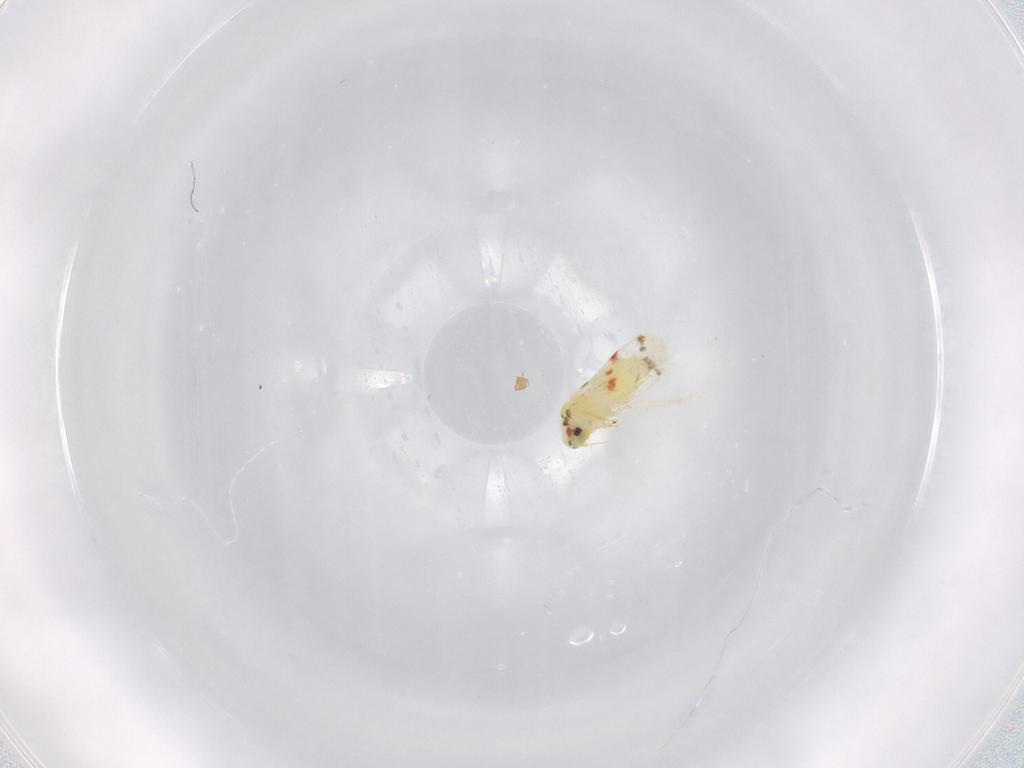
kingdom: Animalia
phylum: Arthropoda
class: Insecta
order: Hemiptera
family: Aleyrodidae
